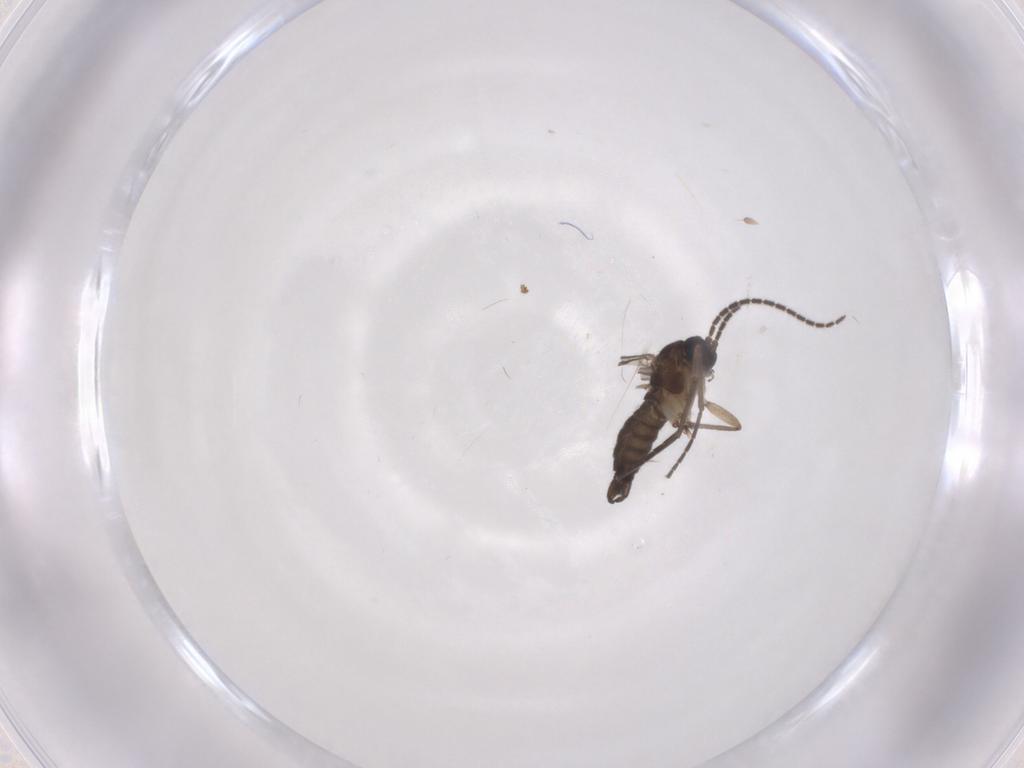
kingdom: Animalia
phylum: Arthropoda
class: Insecta
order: Diptera
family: Sciaridae
